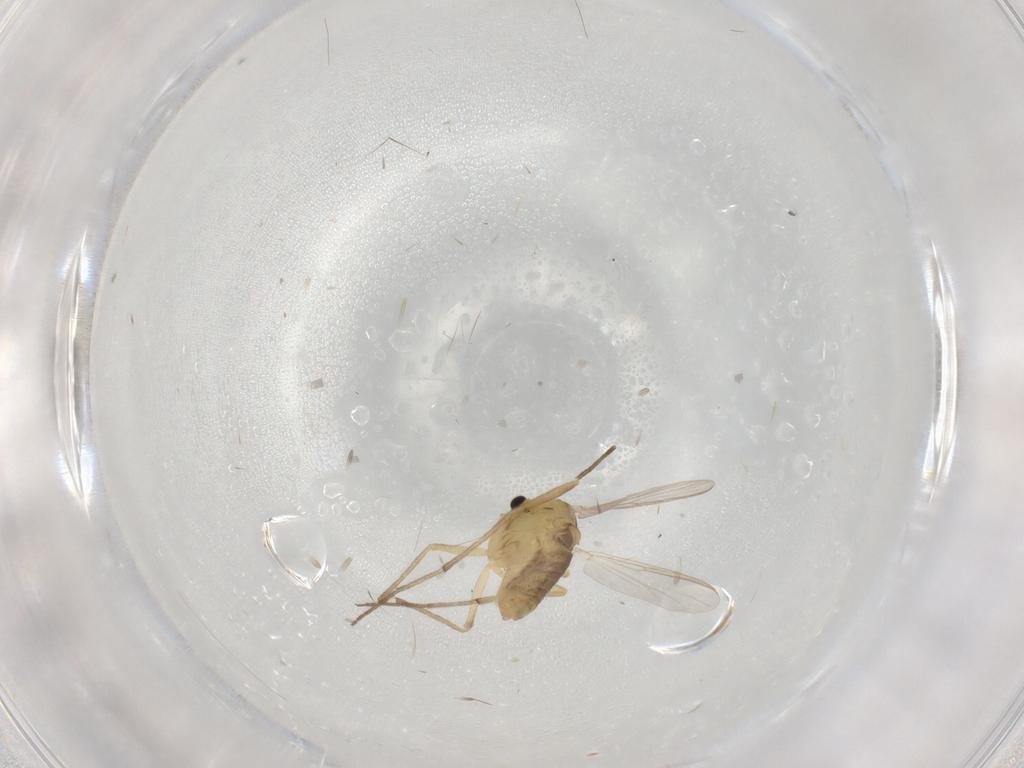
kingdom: Animalia
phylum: Arthropoda
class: Insecta
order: Diptera
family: Chironomidae
